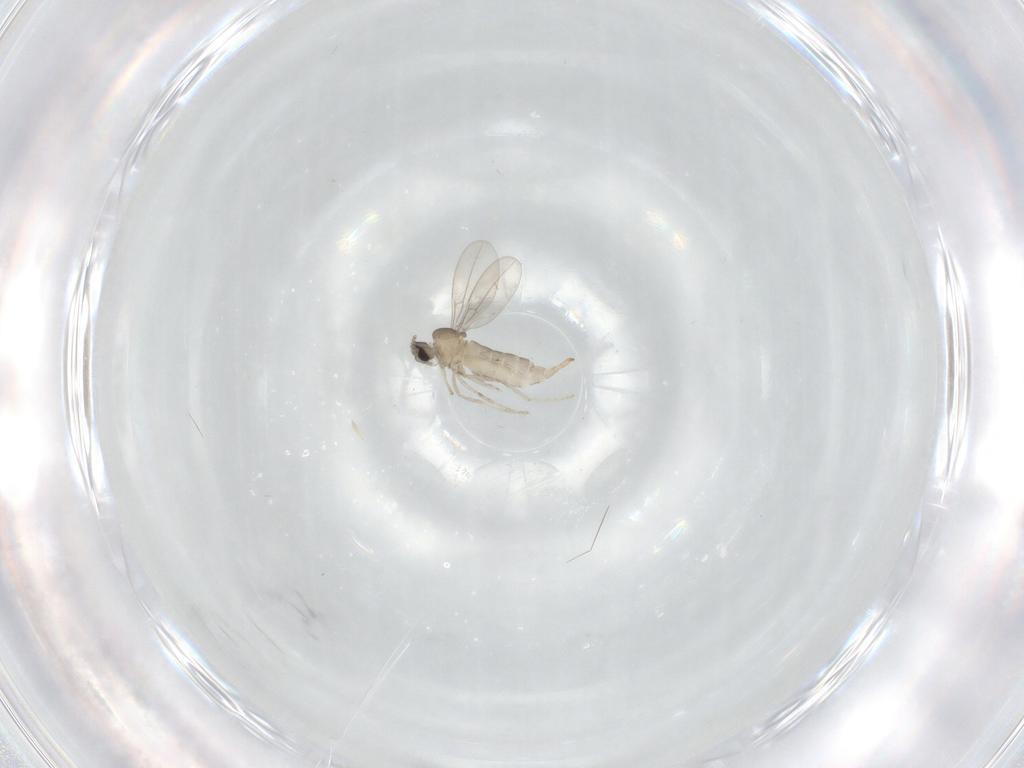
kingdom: Animalia
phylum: Arthropoda
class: Insecta
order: Diptera
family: Cecidomyiidae
